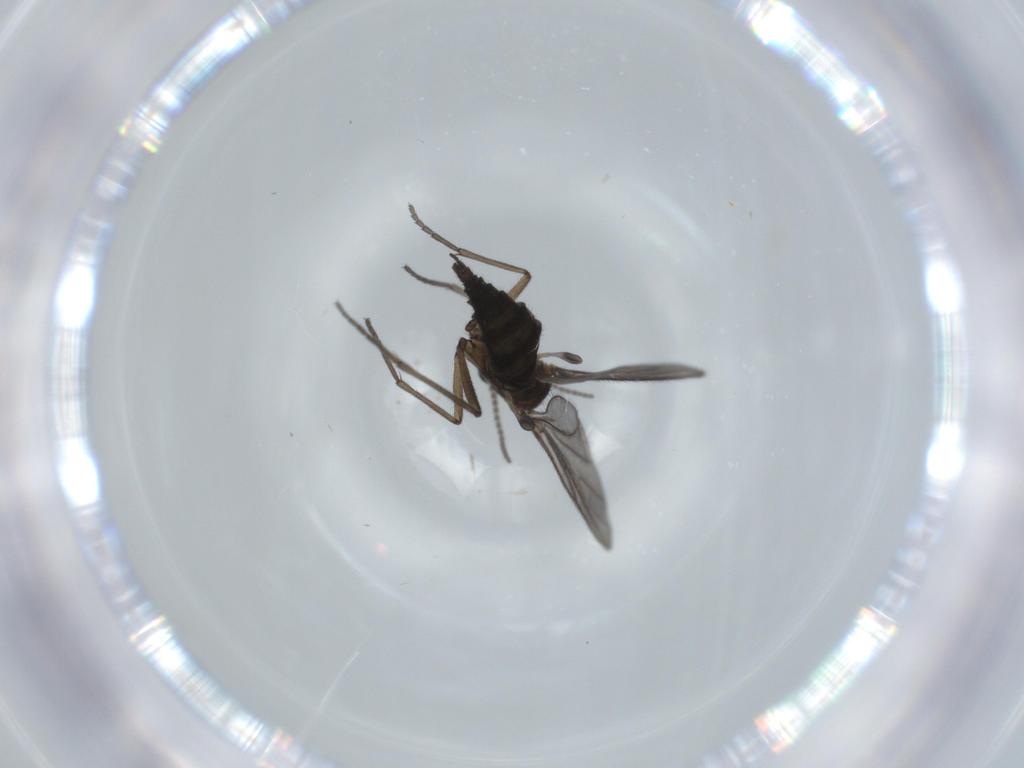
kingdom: Animalia
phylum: Arthropoda
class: Insecta
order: Diptera
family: Sciaridae
